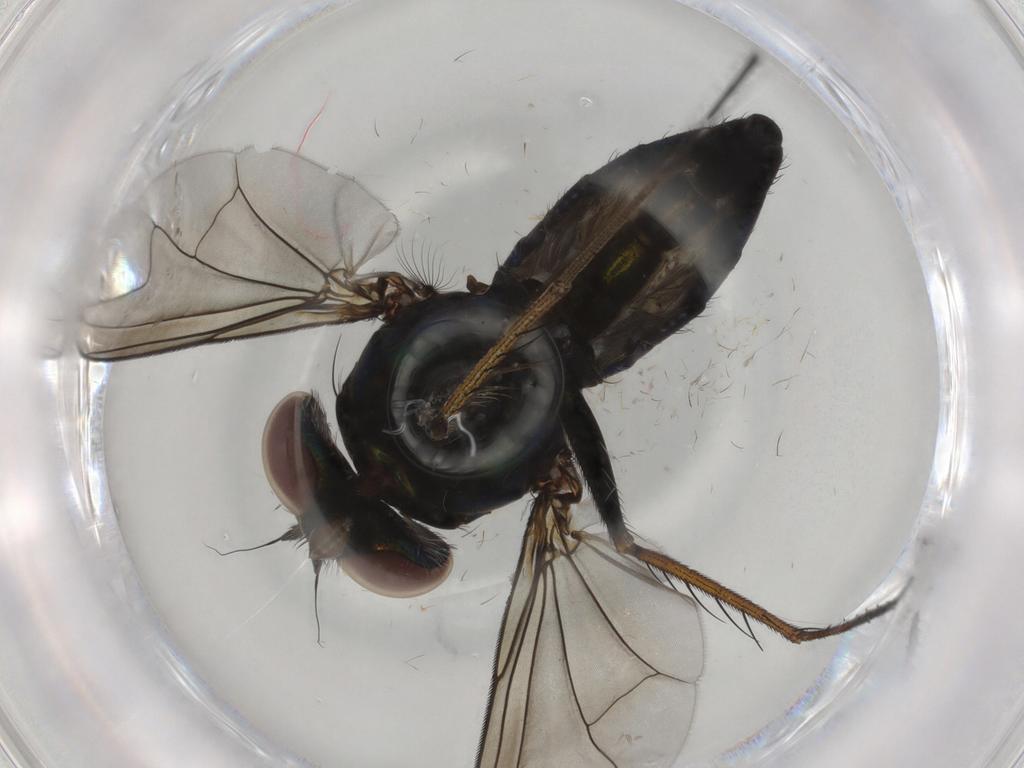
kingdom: Animalia
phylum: Arthropoda
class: Insecta
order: Diptera
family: Dolichopodidae
